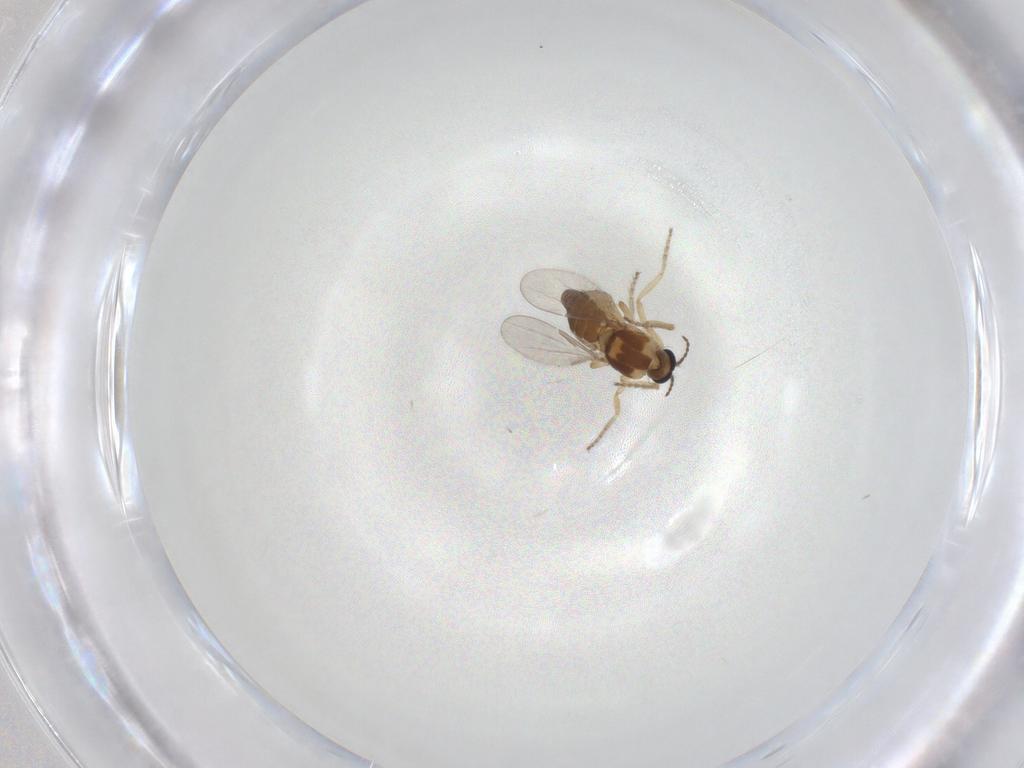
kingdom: Animalia
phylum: Arthropoda
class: Insecta
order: Diptera
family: Ceratopogonidae
